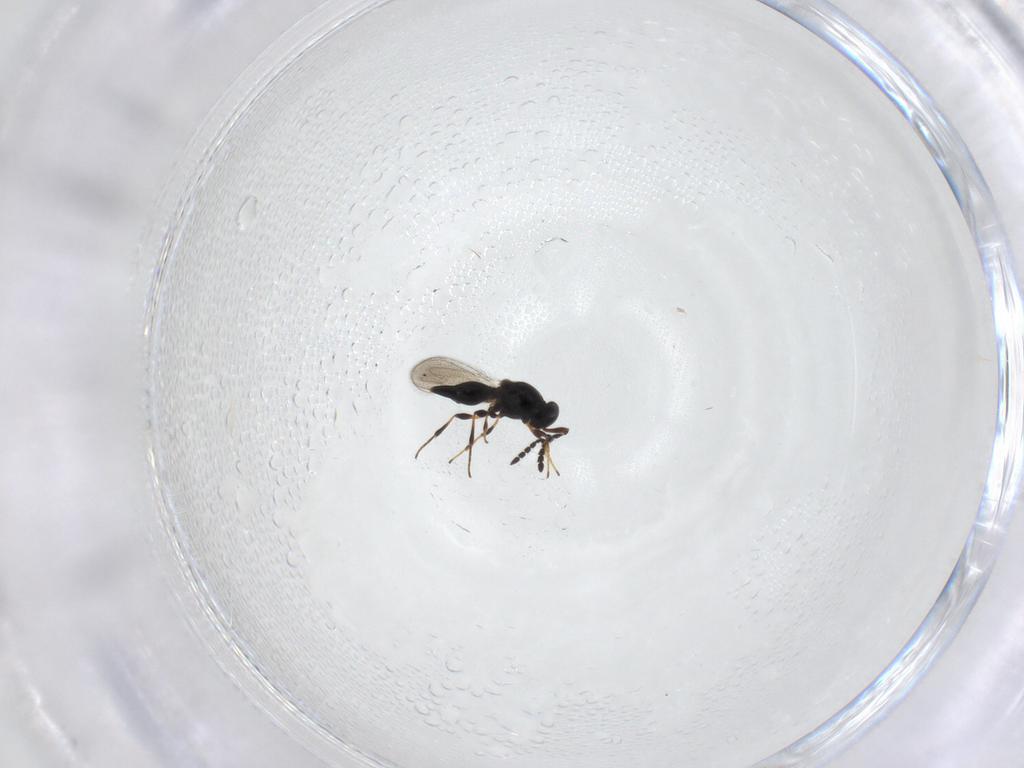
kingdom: Animalia
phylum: Arthropoda
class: Insecta
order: Hymenoptera
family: Platygastridae
